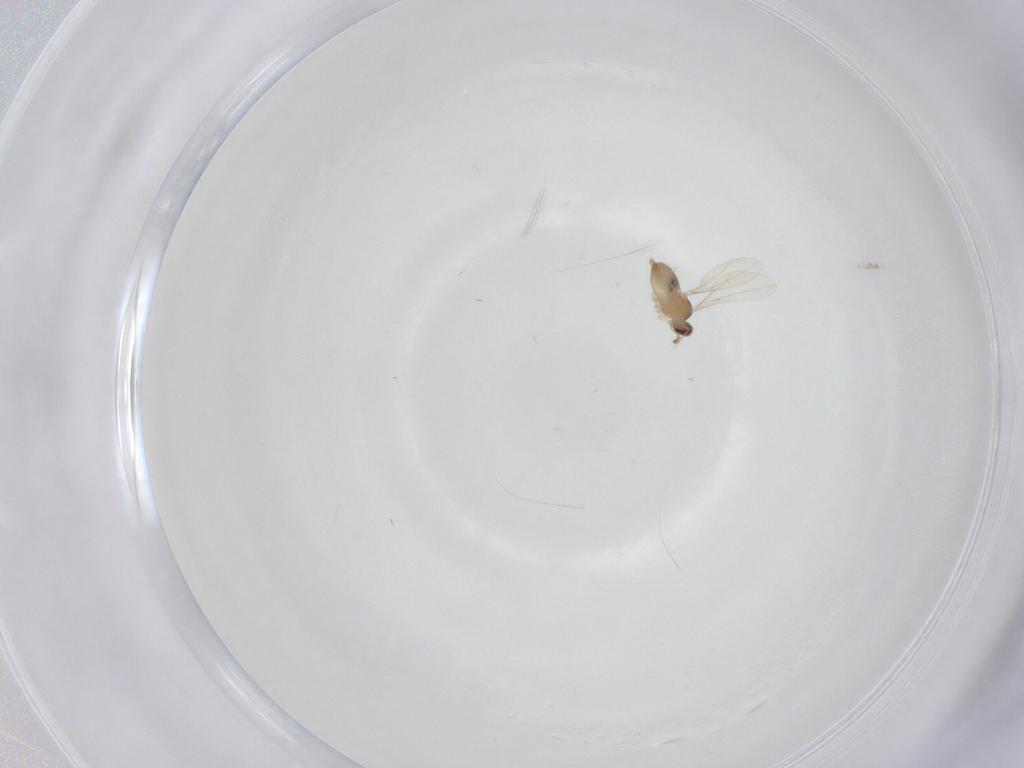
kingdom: Animalia
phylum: Arthropoda
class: Insecta
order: Diptera
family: Cecidomyiidae
